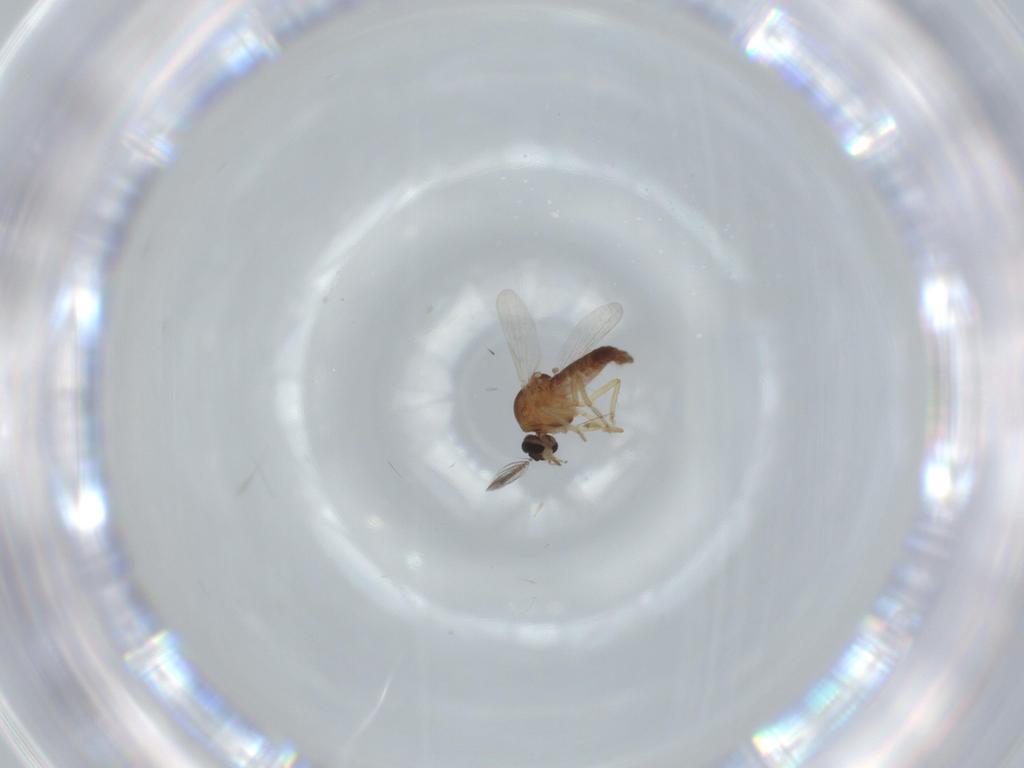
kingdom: Animalia
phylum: Arthropoda
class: Insecta
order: Diptera
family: Ceratopogonidae
